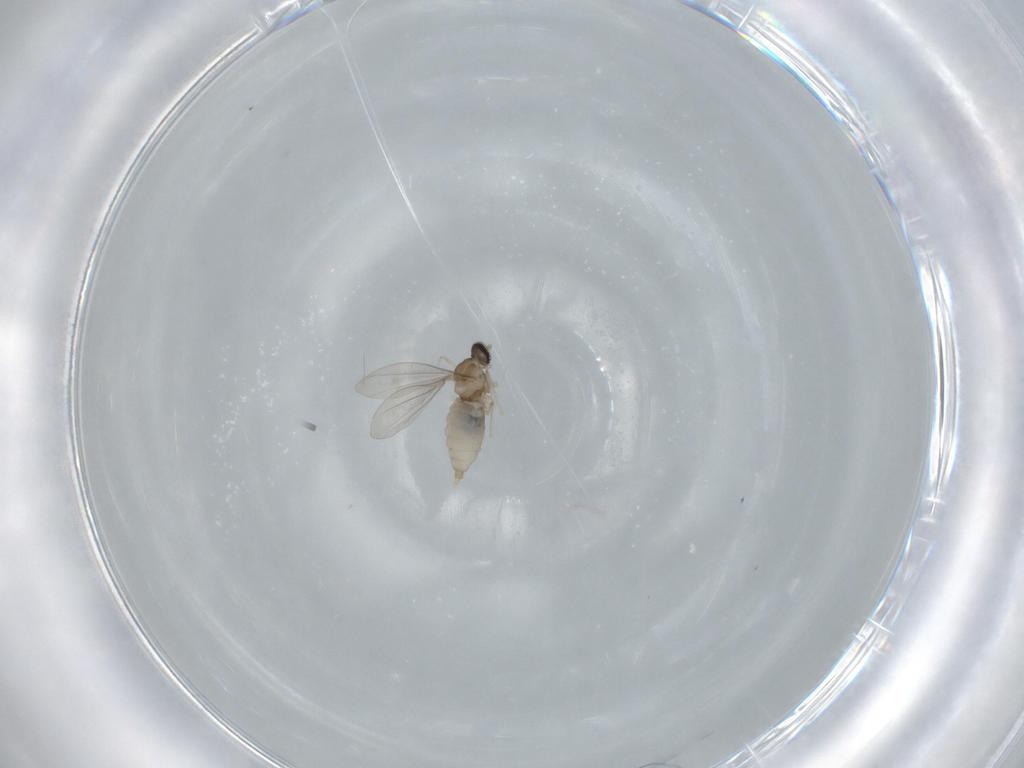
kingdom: Animalia
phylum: Arthropoda
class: Insecta
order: Diptera
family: Cecidomyiidae
